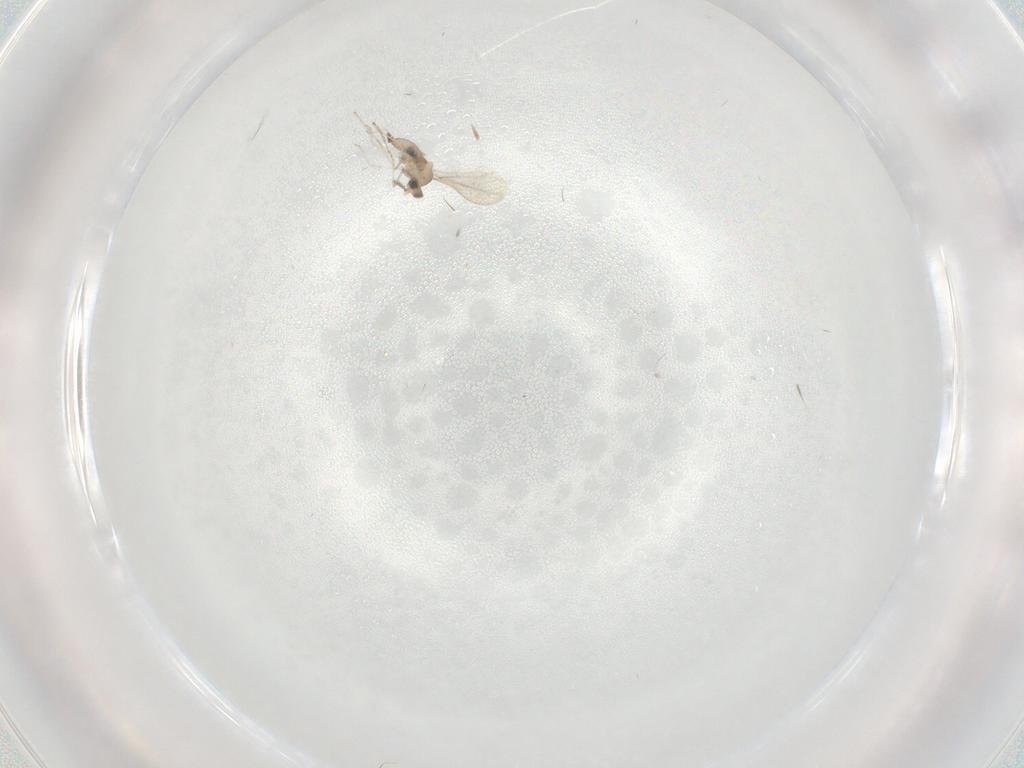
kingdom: Animalia
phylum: Arthropoda
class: Insecta
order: Diptera
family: Cecidomyiidae
